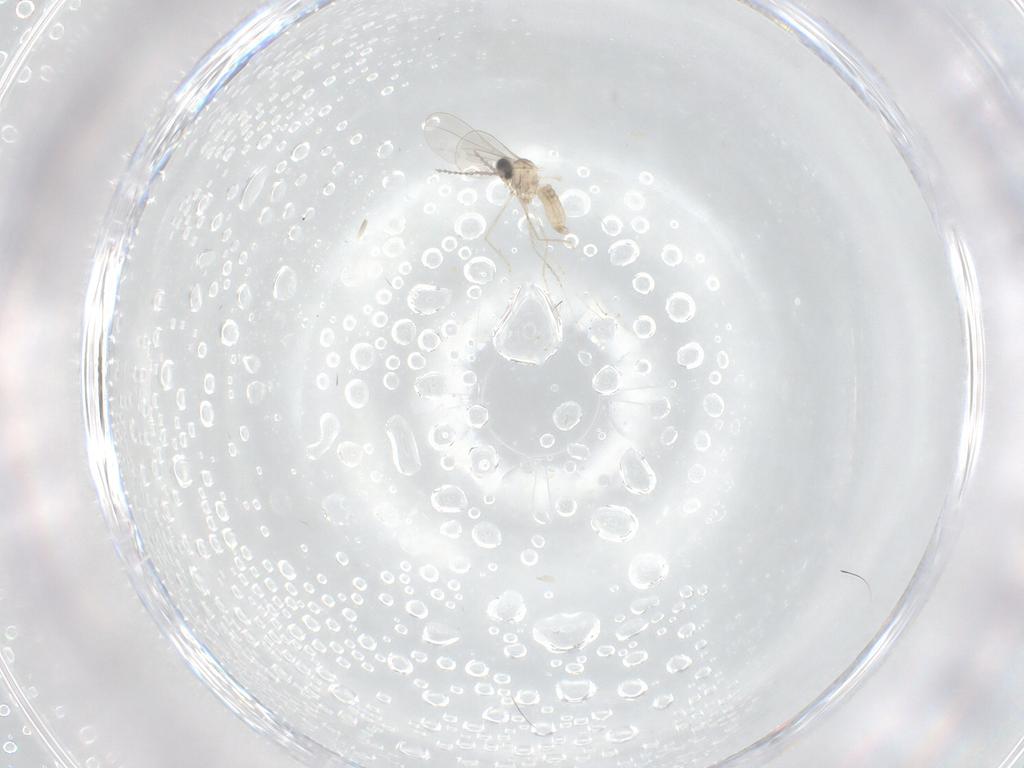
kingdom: Animalia
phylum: Arthropoda
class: Insecta
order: Diptera
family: Cecidomyiidae
